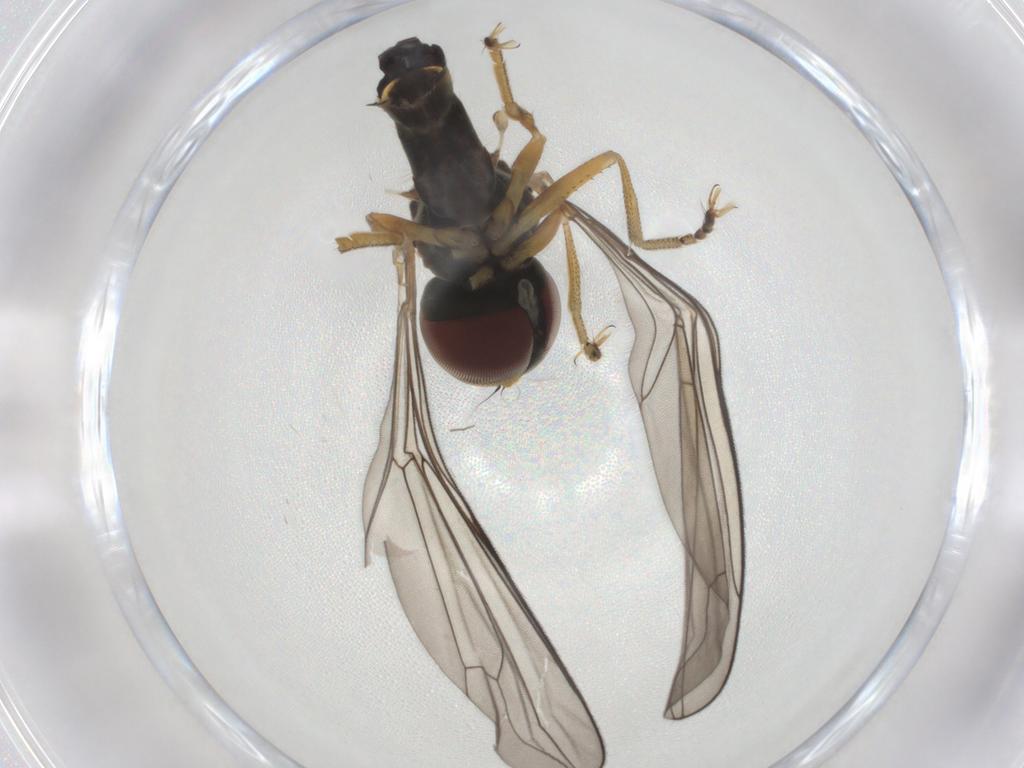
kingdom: Animalia
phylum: Arthropoda
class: Insecta
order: Diptera
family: Pipunculidae
